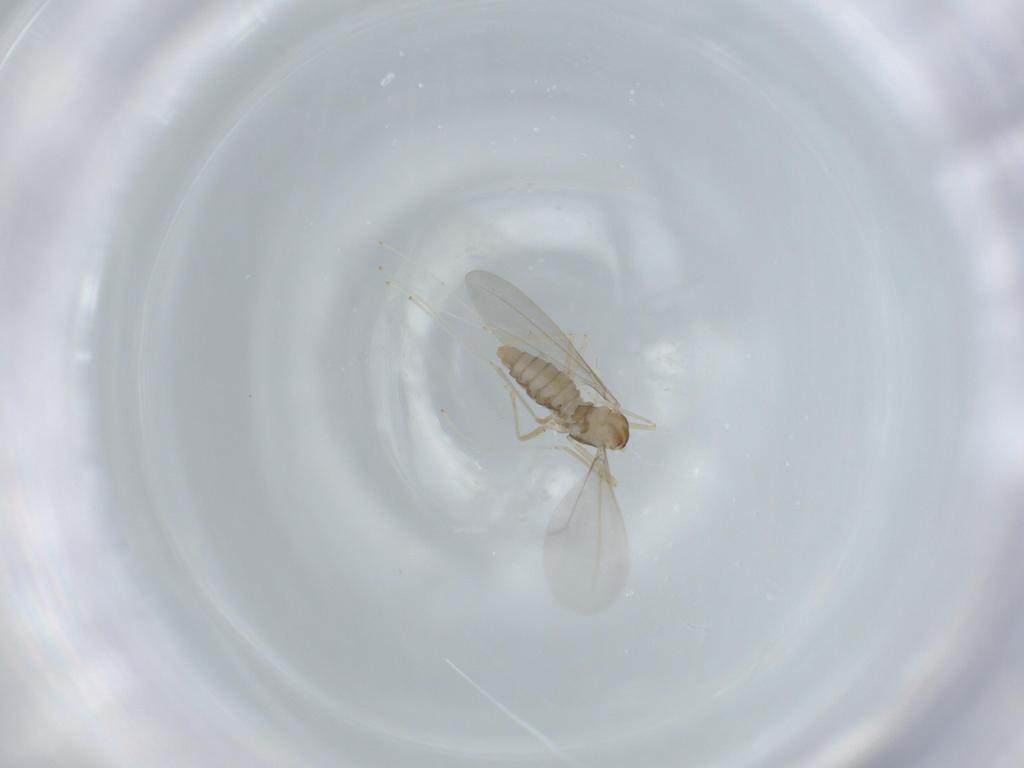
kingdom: Animalia
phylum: Arthropoda
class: Insecta
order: Diptera
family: Cecidomyiidae
